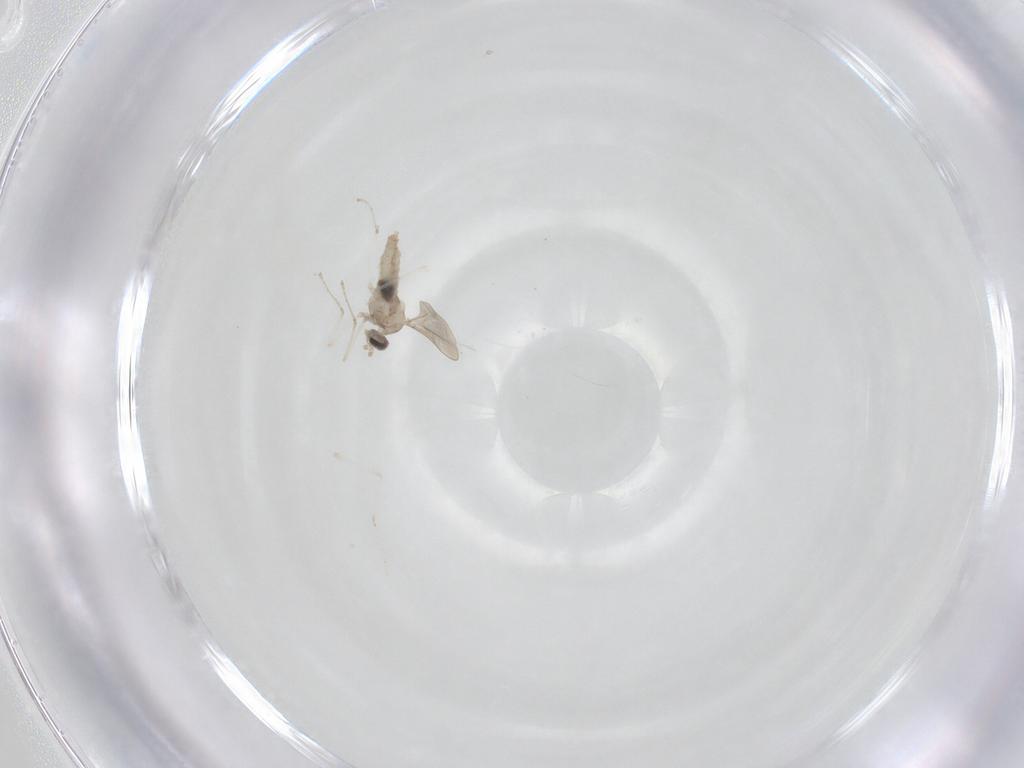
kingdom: Animalia
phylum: Arthropoda
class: Insecta
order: Diptera
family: Cecidomyiidae
